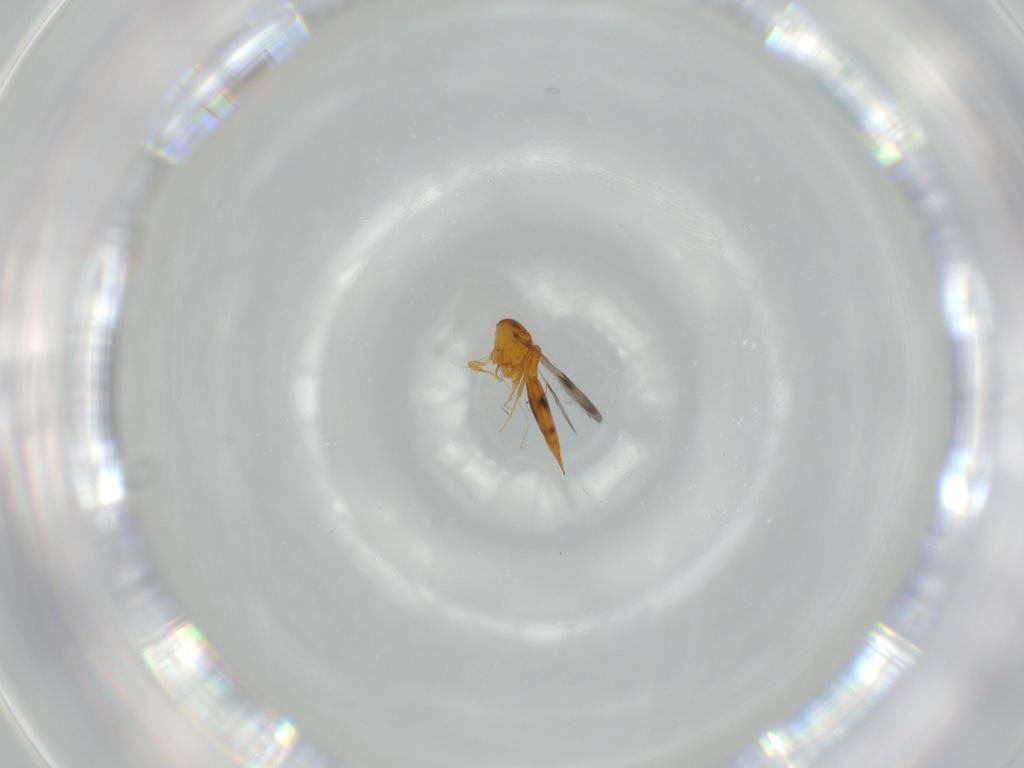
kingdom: Animalia
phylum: Arthropoda
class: Insecta
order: Hymenoptera
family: Scelionidae
